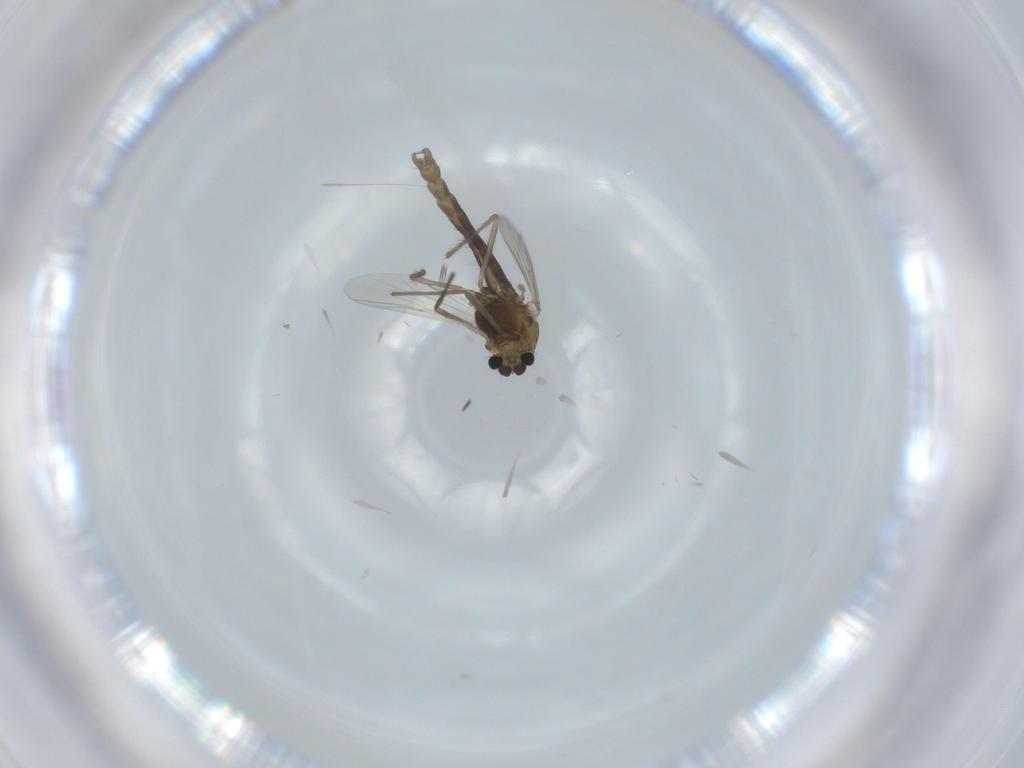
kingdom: Animalia
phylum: Arthropoda
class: Insecta
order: Diptera
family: Chironomidae
